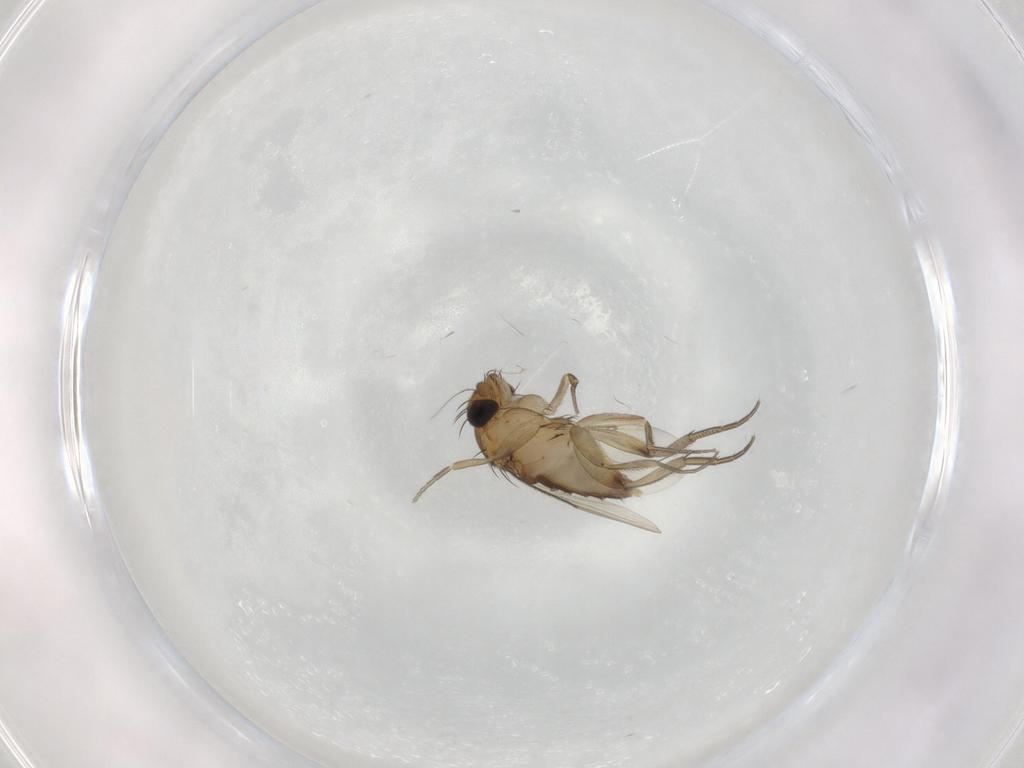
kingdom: Animalia
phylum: Arthropoda
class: Insecta
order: Diptera
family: Phoridae
